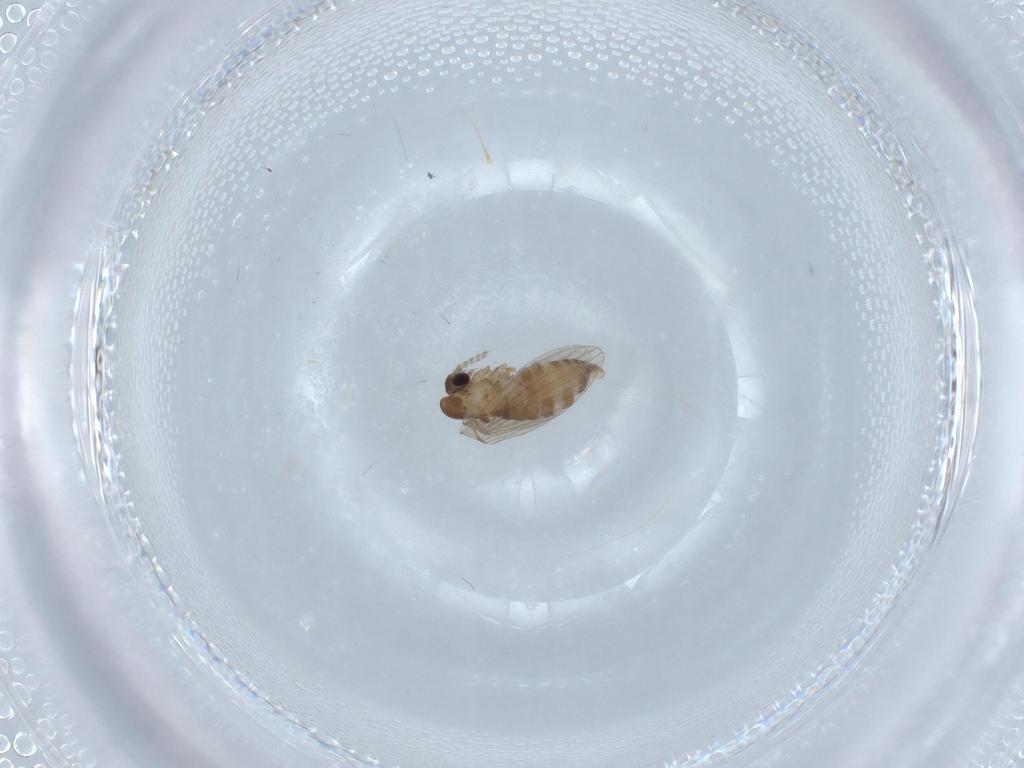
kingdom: Animalia
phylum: Arthropoda
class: Insecta
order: Diptera
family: Psychodidae
